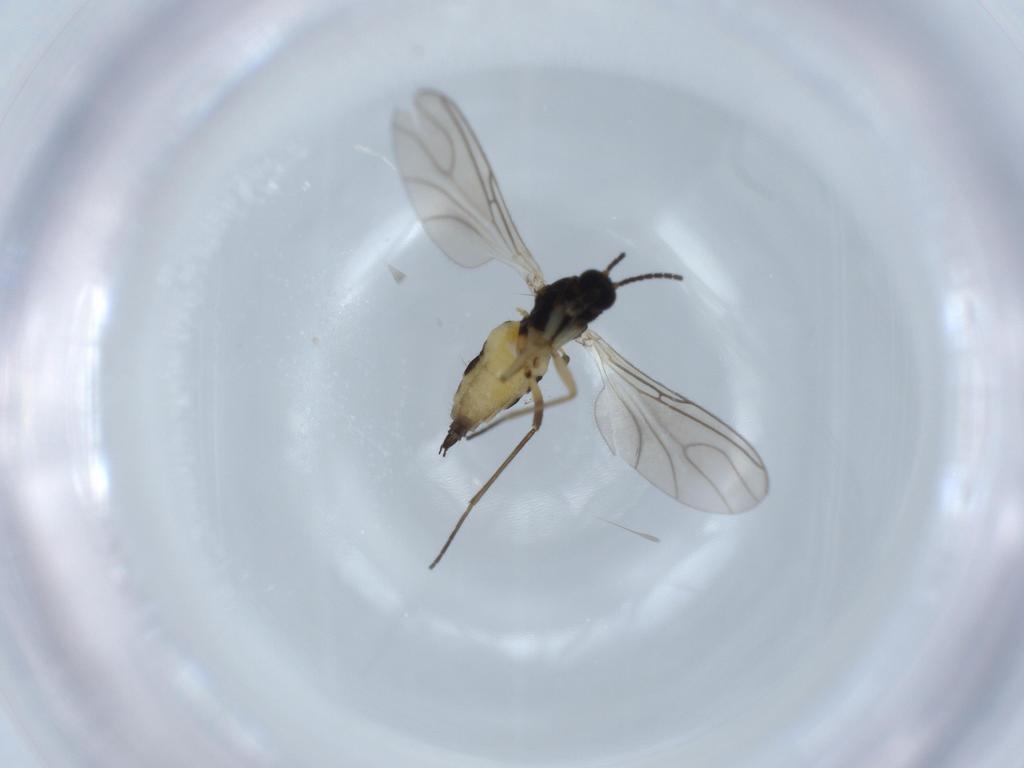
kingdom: Animalia
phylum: Arthropoda
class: Insecta
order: Diptera
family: Sciaridae
